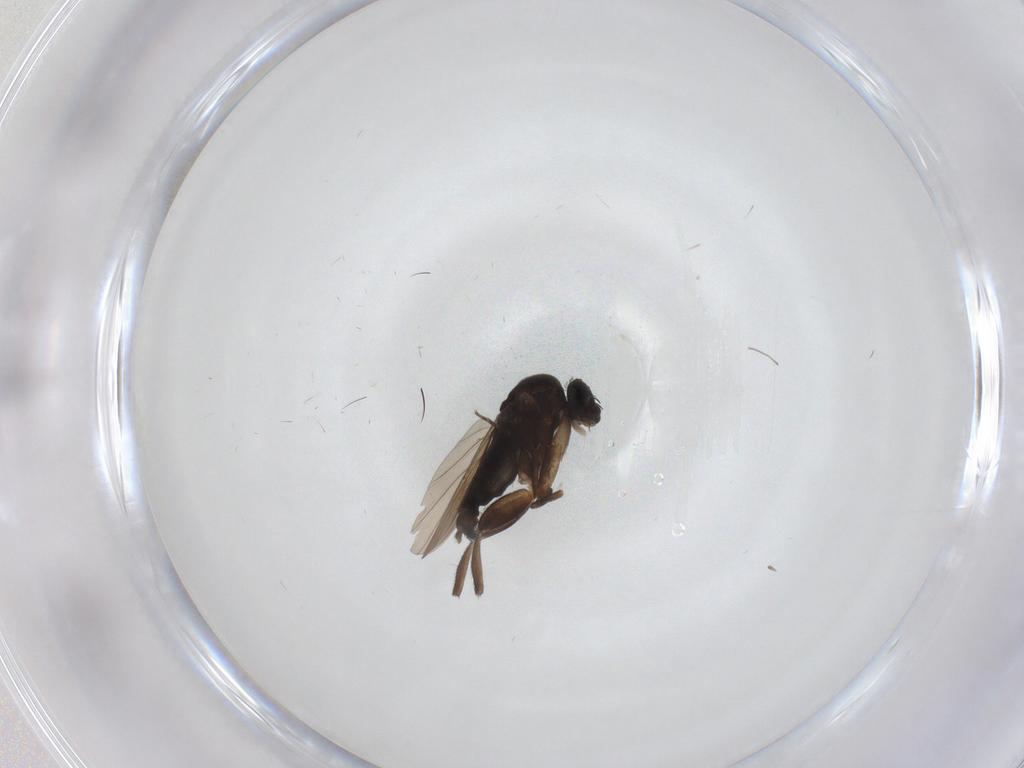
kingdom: Animalia
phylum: Arthropoda
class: Insecta
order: Diptera
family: Phoridae
